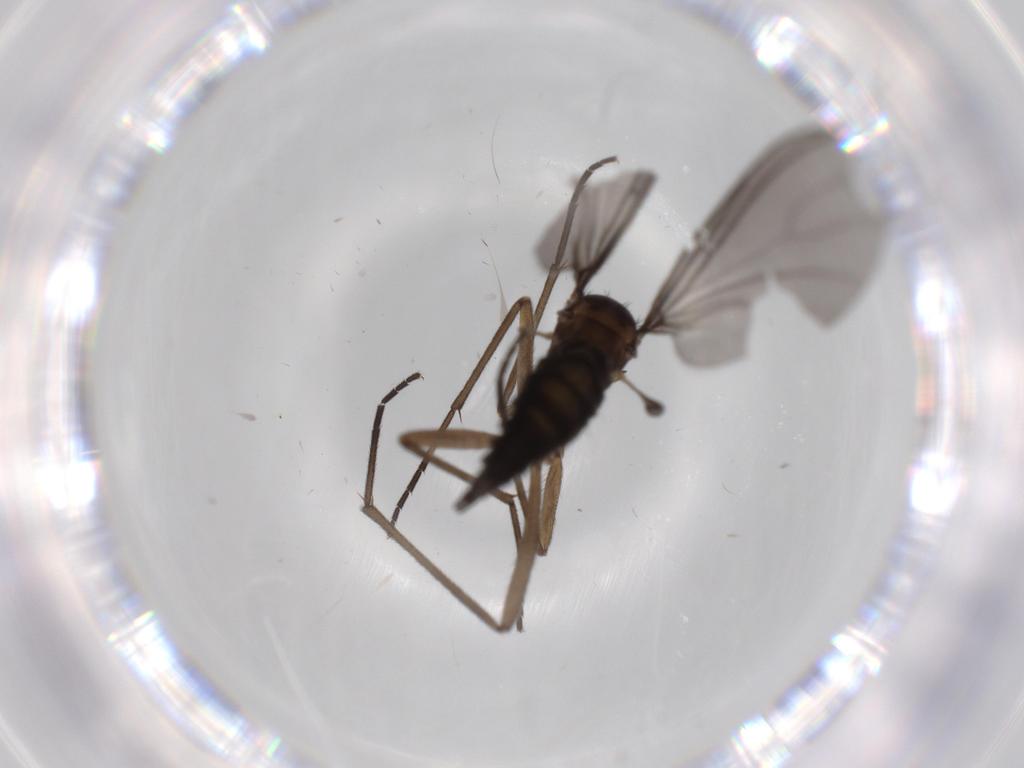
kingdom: Animalia
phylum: Arthropoda
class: Insecta
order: Diptera
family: Sciaridae
